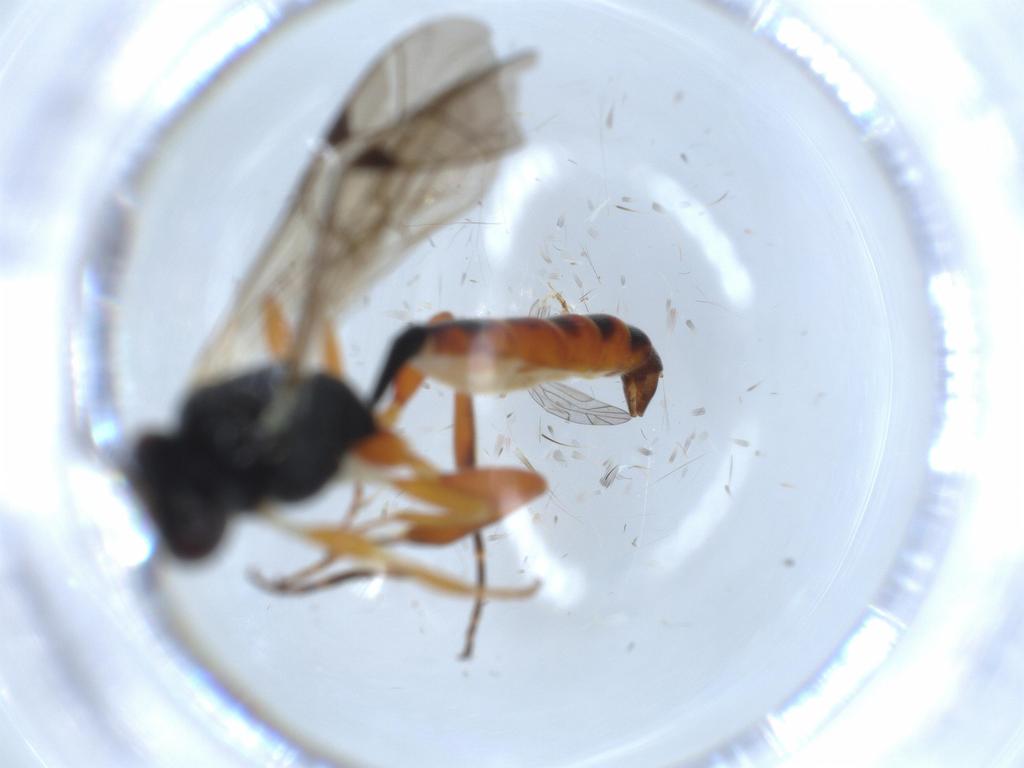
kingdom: Animalia
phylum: Arthropoda
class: Insecta
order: Hymenoptera
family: Ichneumonidae
